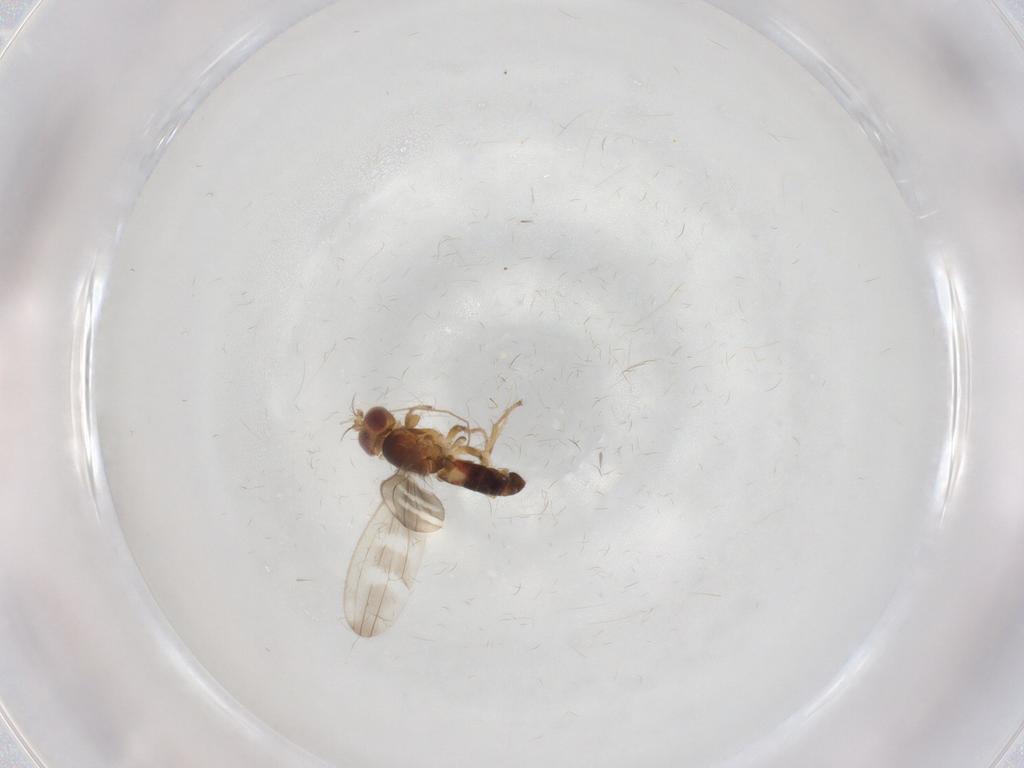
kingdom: Animalia
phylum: Arthropoda
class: Insecta
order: Diptera
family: Periscelididae
